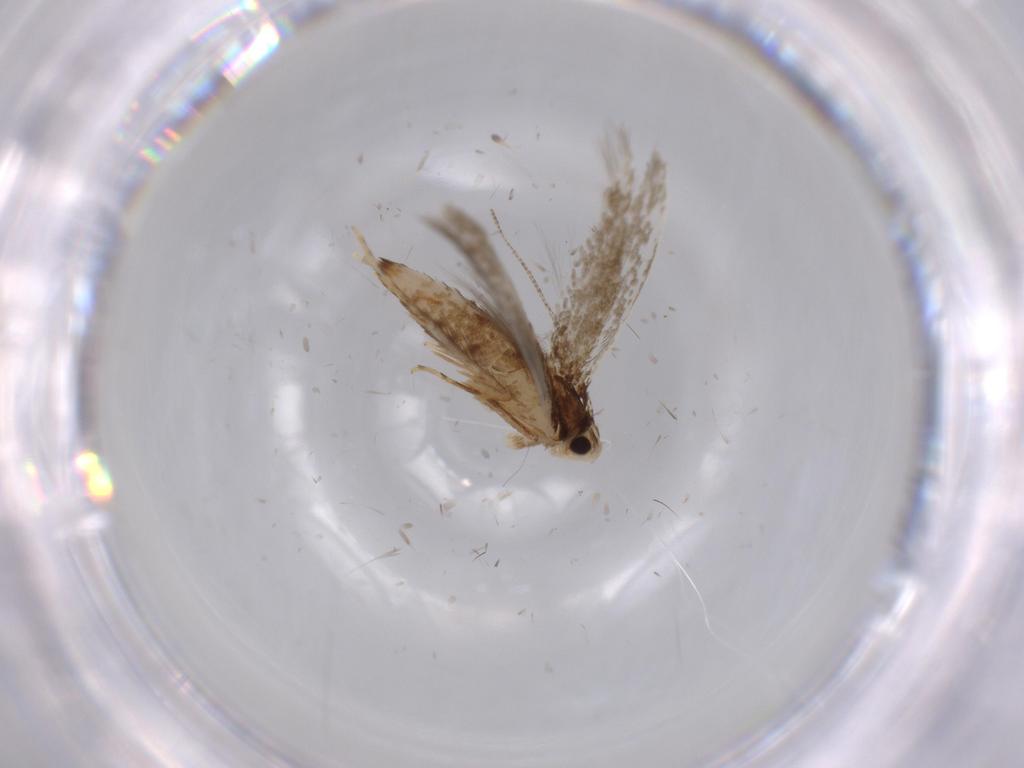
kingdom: Animalia
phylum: Arthropoda
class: Insecta
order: Lepidoptera
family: Tineidae
